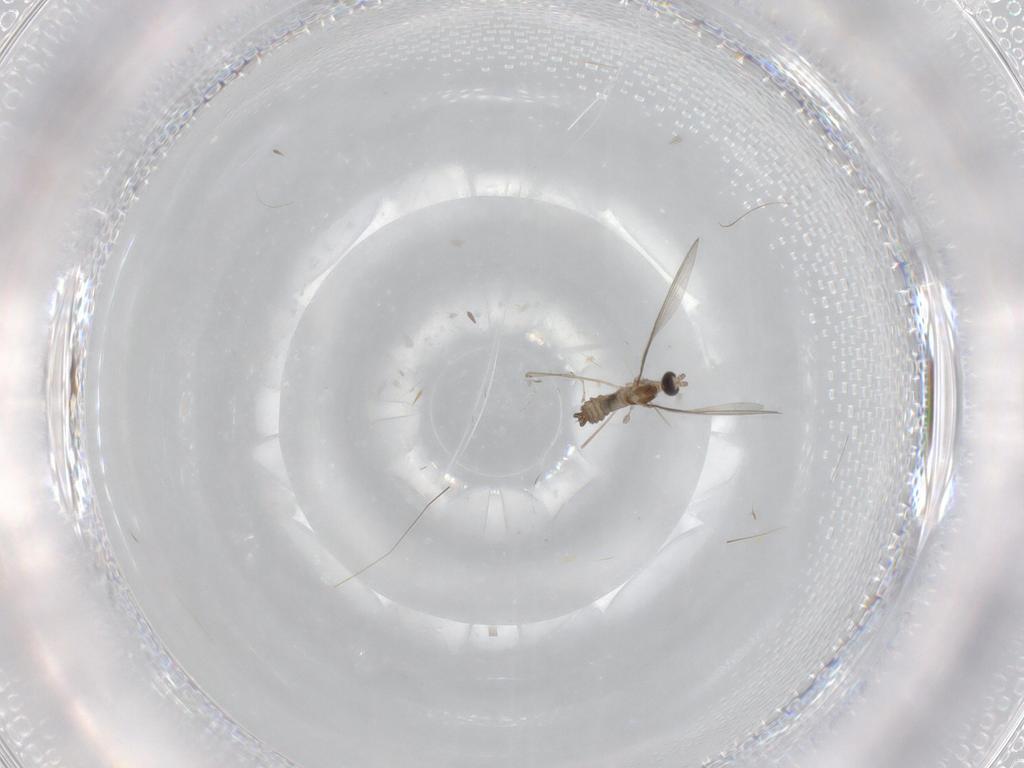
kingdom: Animalia
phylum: Arthropoda
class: Insecta
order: Diptera
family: Cecidomyiidae
